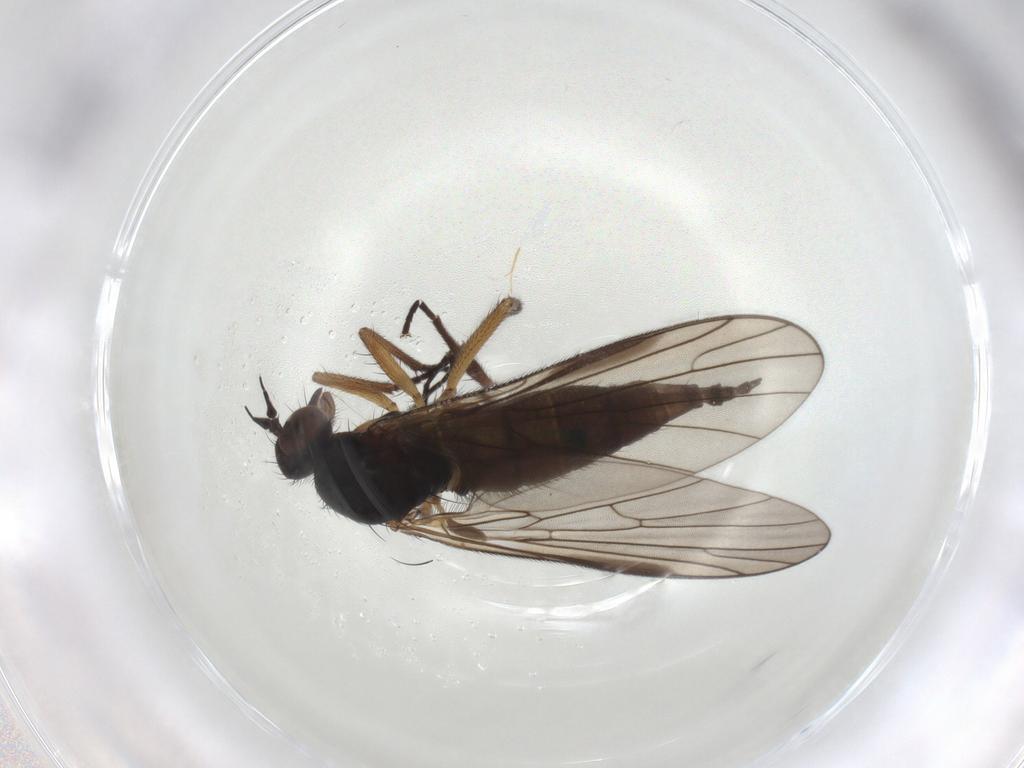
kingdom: Animalia
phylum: Arthropoda
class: Insecta
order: Diptera
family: Empididae
